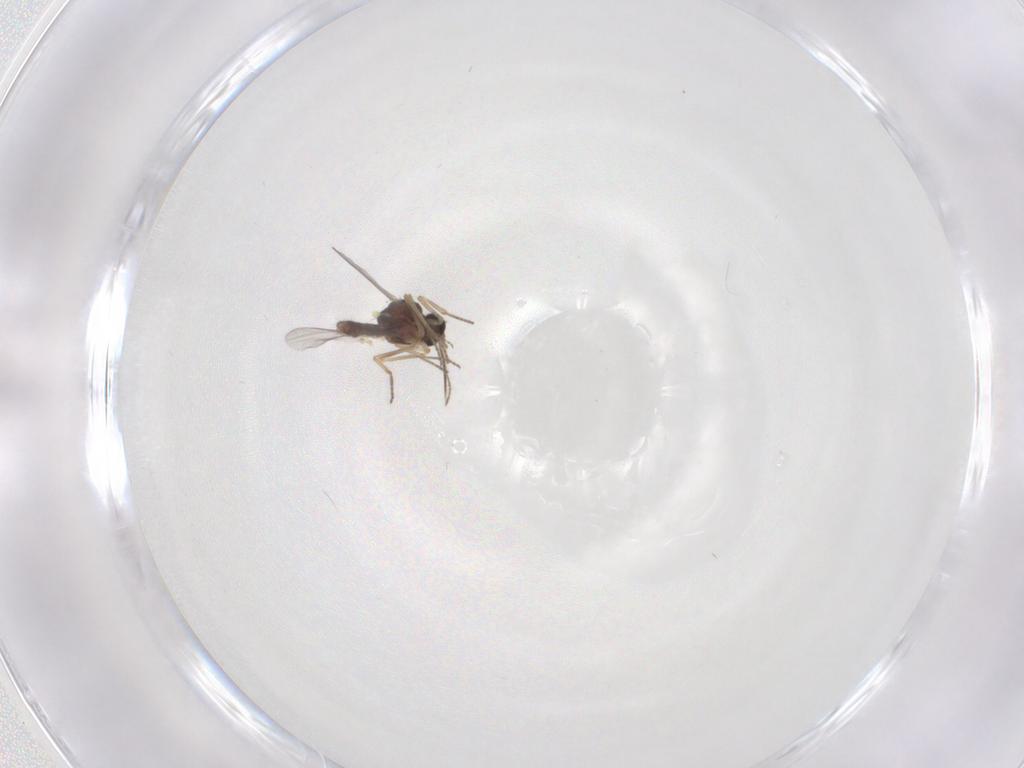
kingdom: Animalia
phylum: Arthropoda
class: Insecta
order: Diptera
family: Ceratopogonidae
